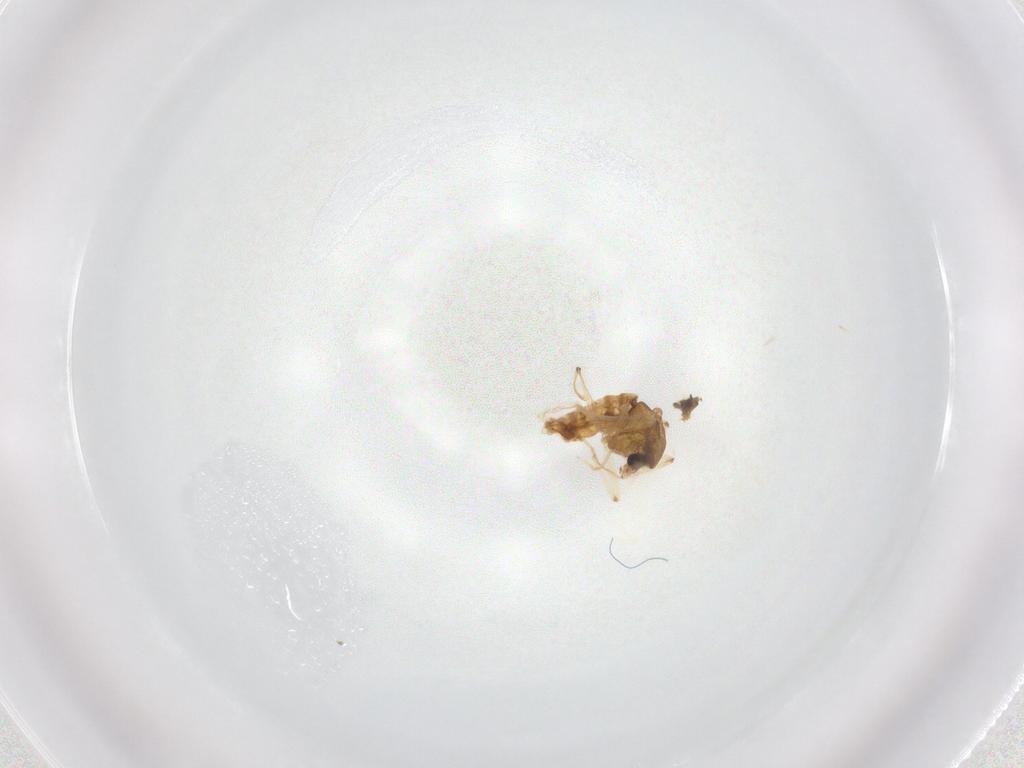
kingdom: Animalia
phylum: Arthropoda
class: Insecta
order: Diptera
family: Chironomidae
